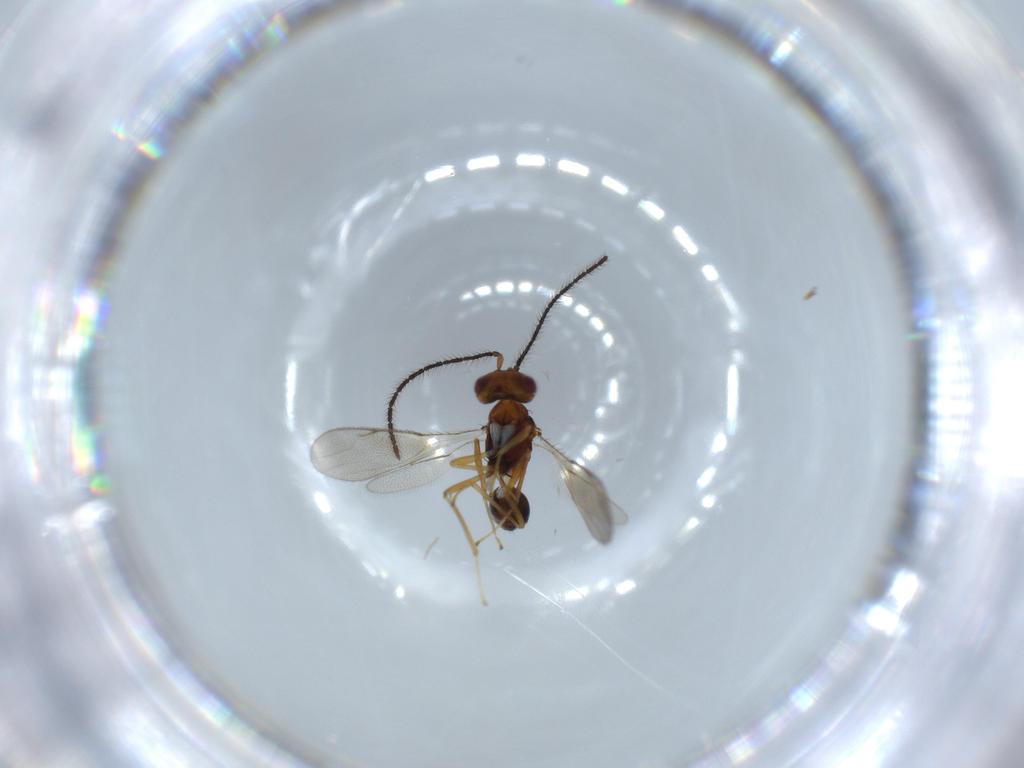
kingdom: Animalia
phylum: Arthropoda
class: Insecta
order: Hymenoptera
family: Diparidae
